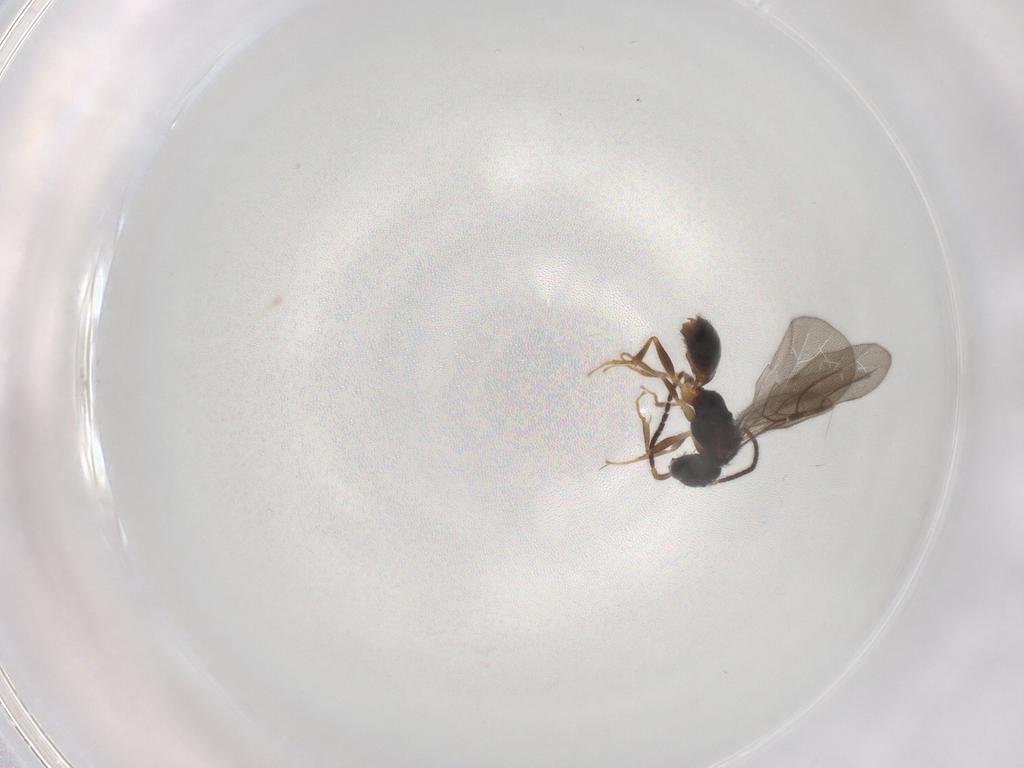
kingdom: Animalia
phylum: Arthropoda
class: Insecta
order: Hymenoptera
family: Bethylidae
